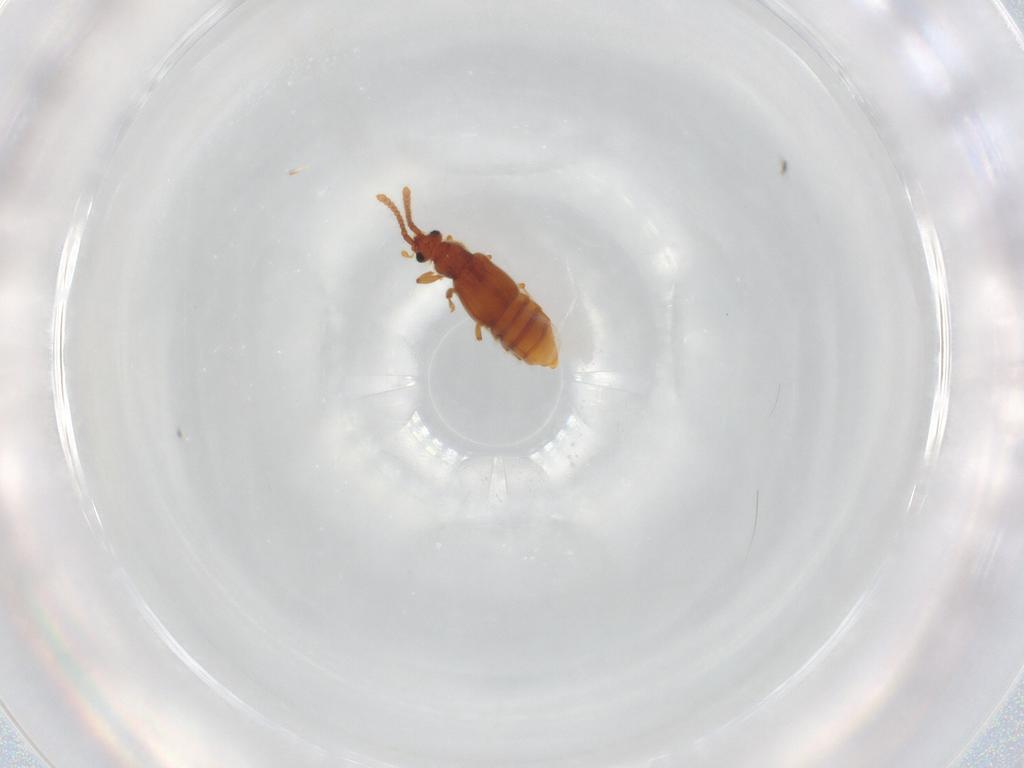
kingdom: Animalia
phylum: Arthropoda
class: Insecta
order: Coleoptera
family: Staphylinidae
